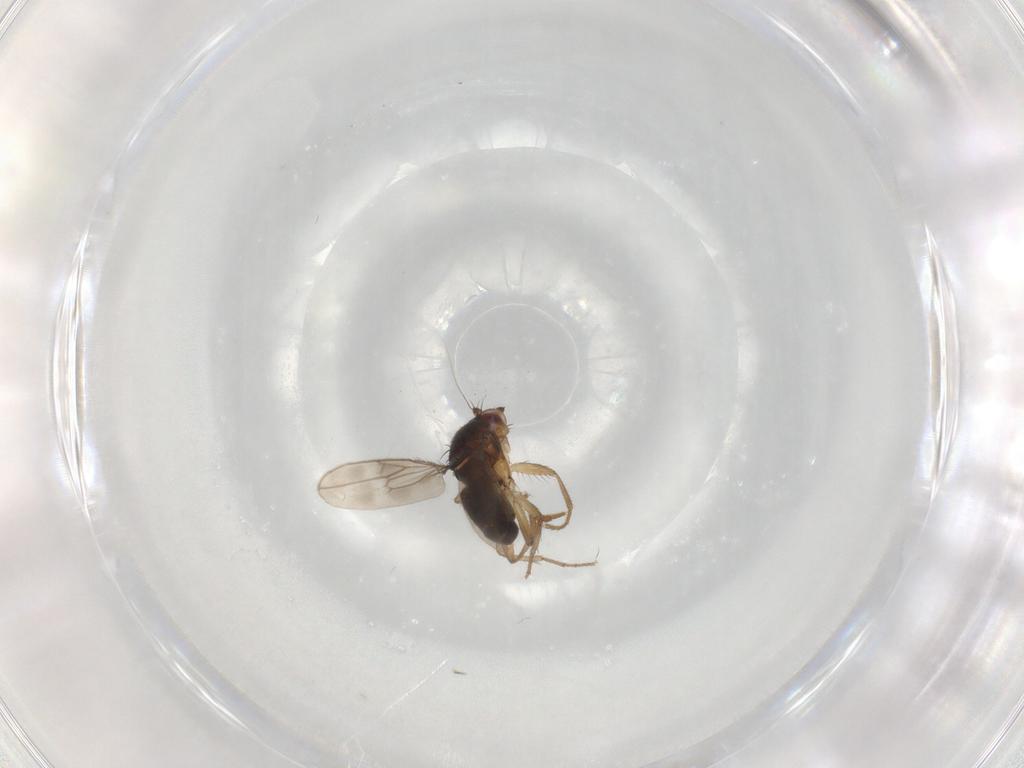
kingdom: Animalia
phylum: Arthropoda
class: Insecta
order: Diptera
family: Sphaeroceridae
